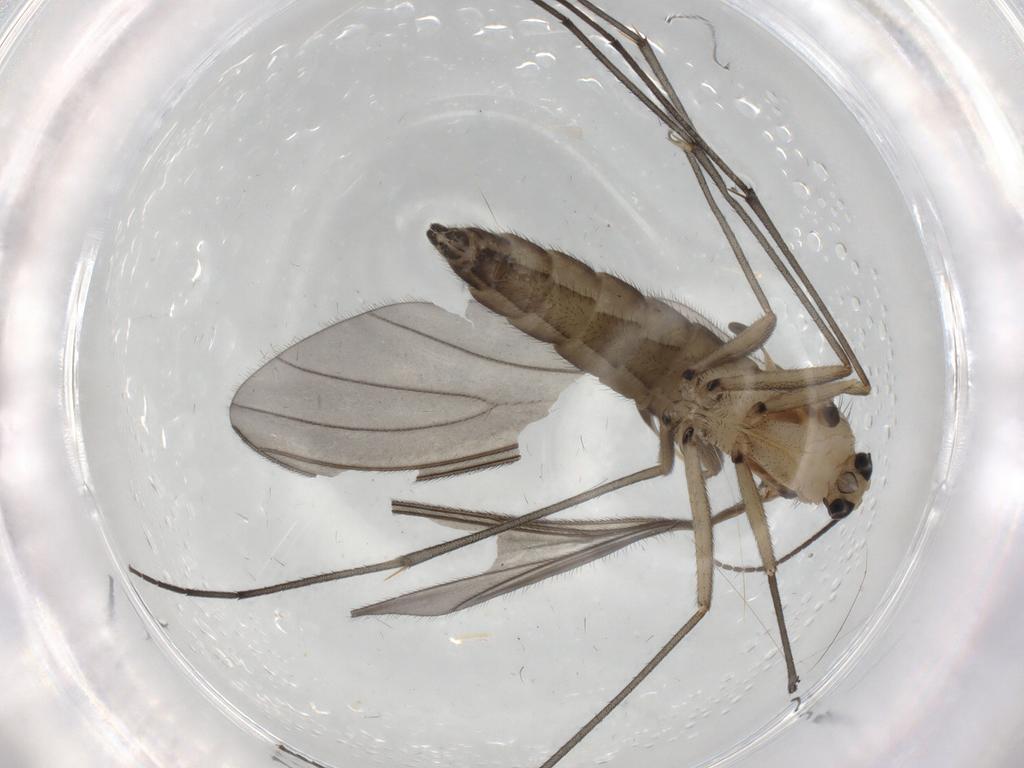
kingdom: Animalia
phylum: Arthropoda
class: Insecta
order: Diptera
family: Sciaridae
